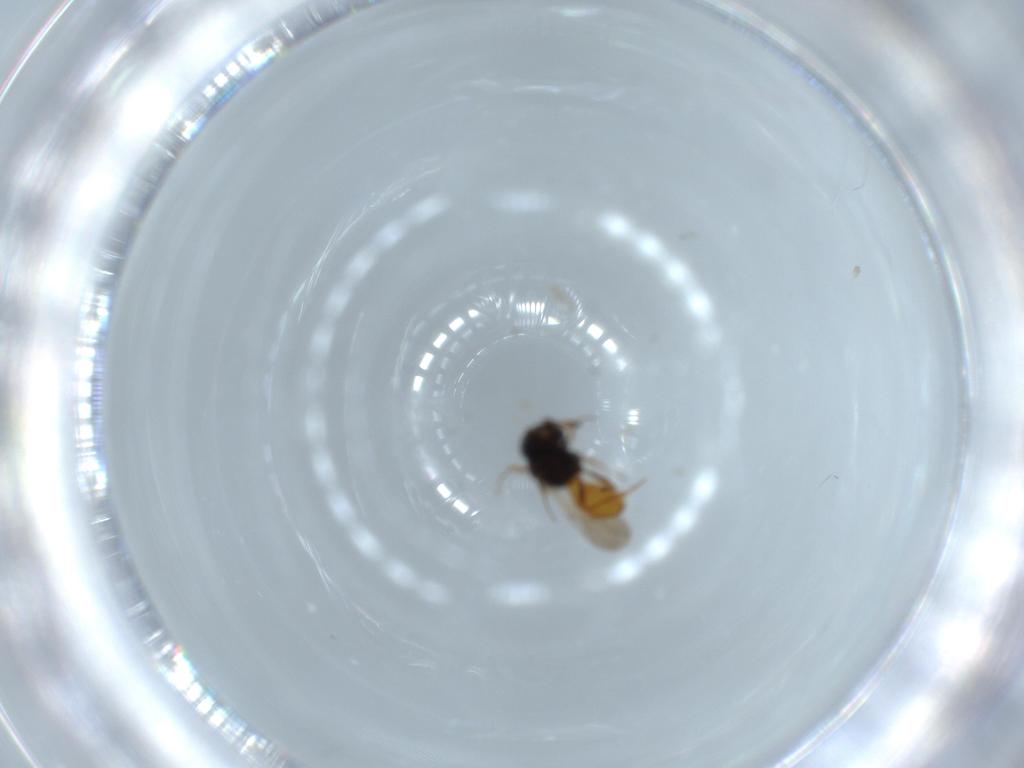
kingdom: Animalia
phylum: Arthropoda
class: Insecta
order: Hymenoptera
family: Scelionidae
